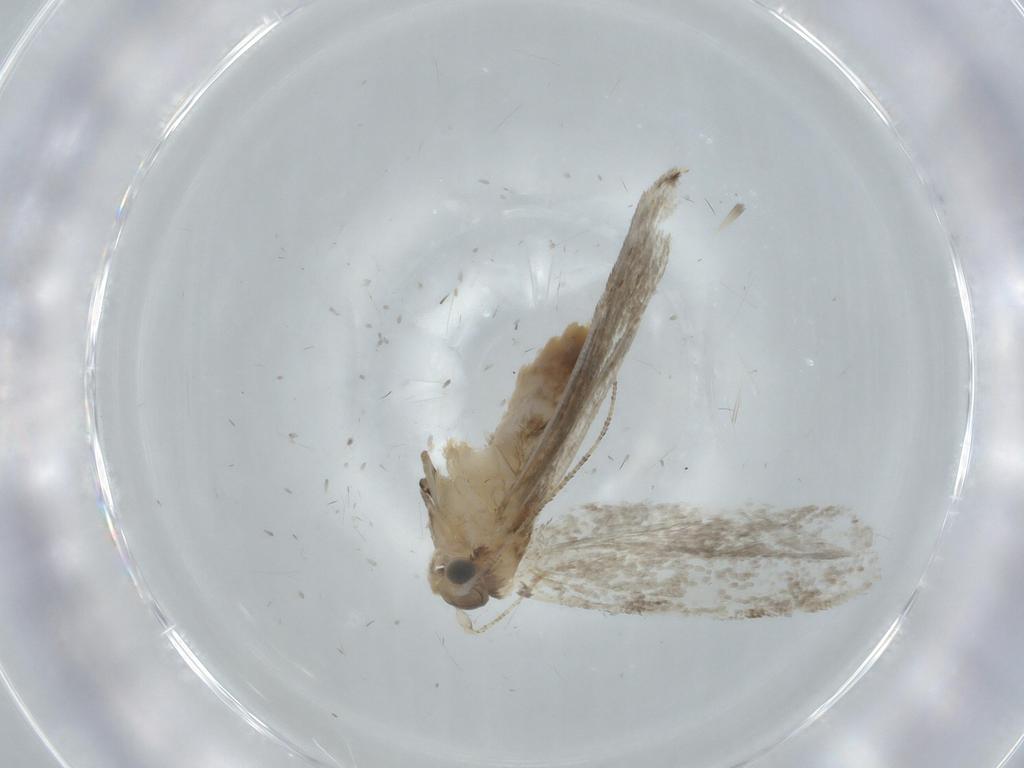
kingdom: Animalia
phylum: Arthropoda
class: Insecta
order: Lepidoptera
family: Tineidae
